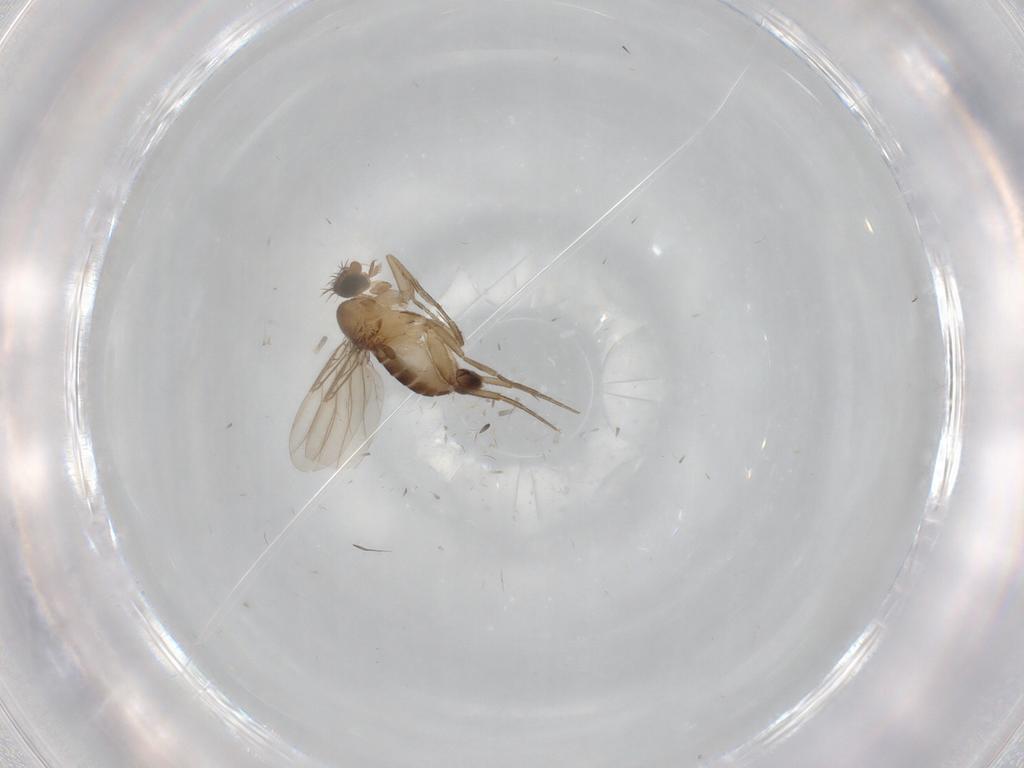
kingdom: Animalia
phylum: Arthropoda
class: Insecta
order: Diptera
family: Phoridae
